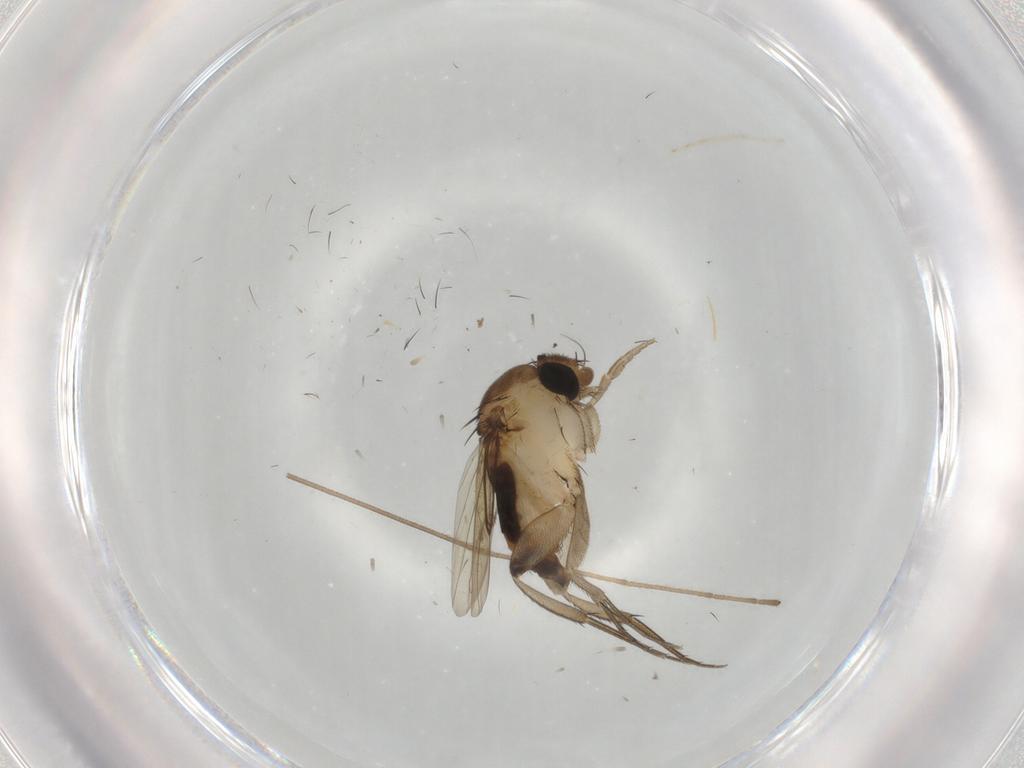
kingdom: Animalia
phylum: Arthropoda
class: Insecta
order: Diptera
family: Limoniidae
